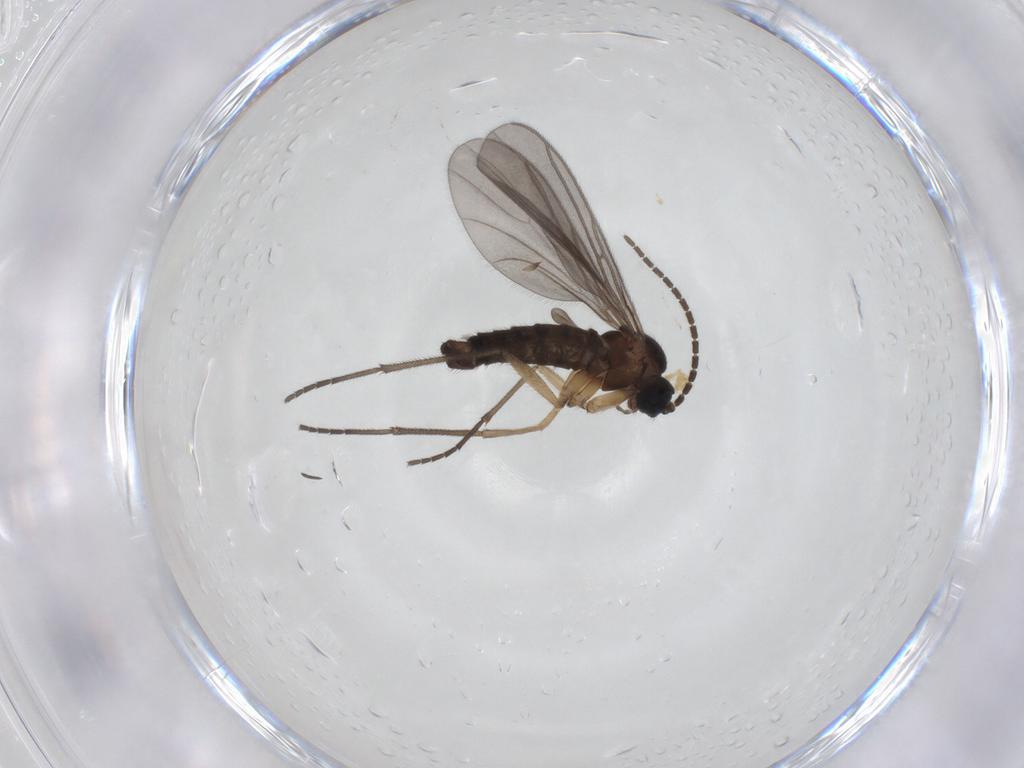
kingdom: Animalia
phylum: Arthropoda
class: Insecta
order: Diptera
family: Sciaridae
